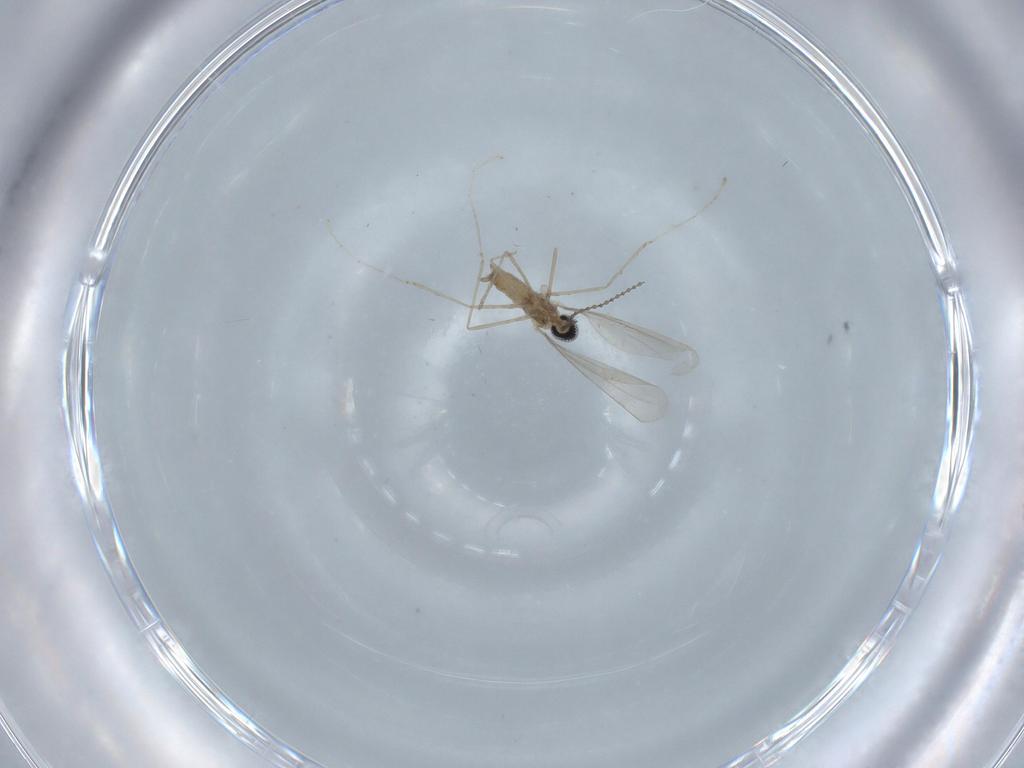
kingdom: Animalia
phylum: Arthropoda
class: Insecta
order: Diptera
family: Cecidomyiidae
